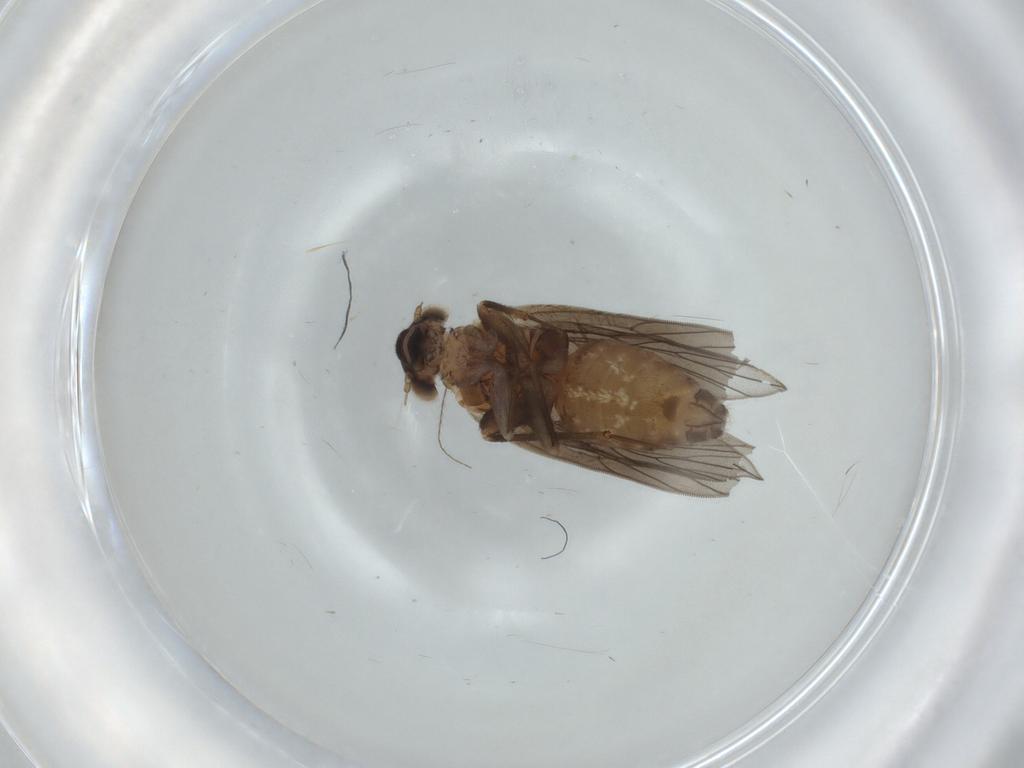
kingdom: Animalia
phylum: Arthropoda
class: Insecta
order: Psocodea
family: Lepidopsocidae
